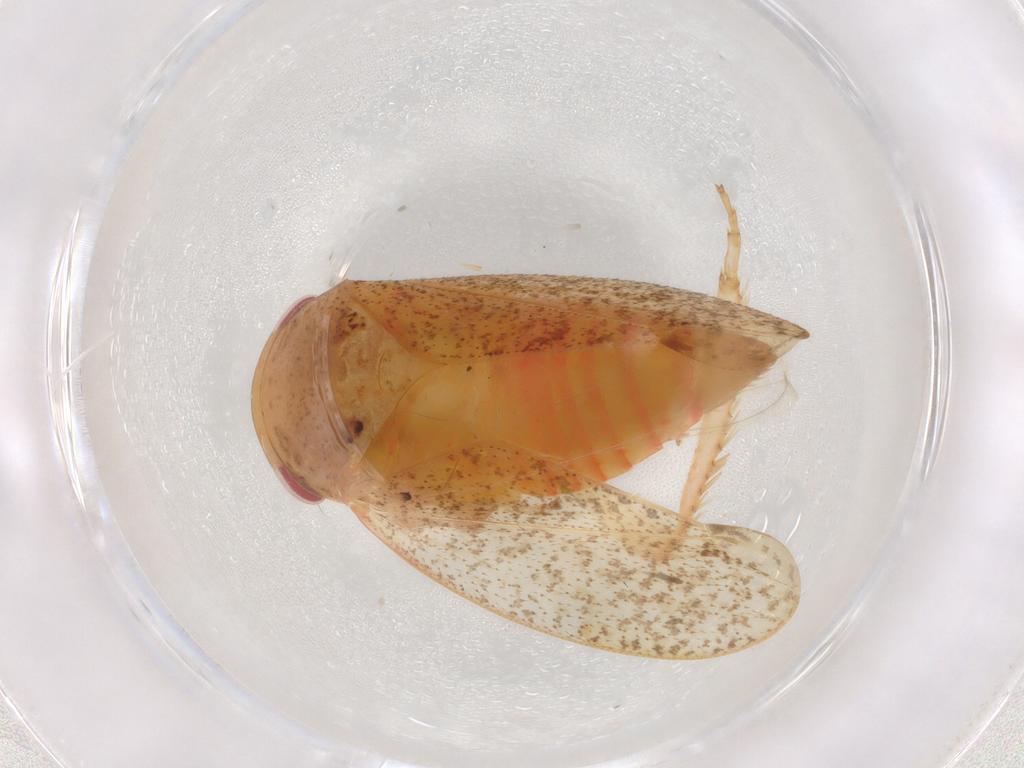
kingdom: Animalia
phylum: Arthropoda
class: Insecta
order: Hemiptera
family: Cicadellidae
